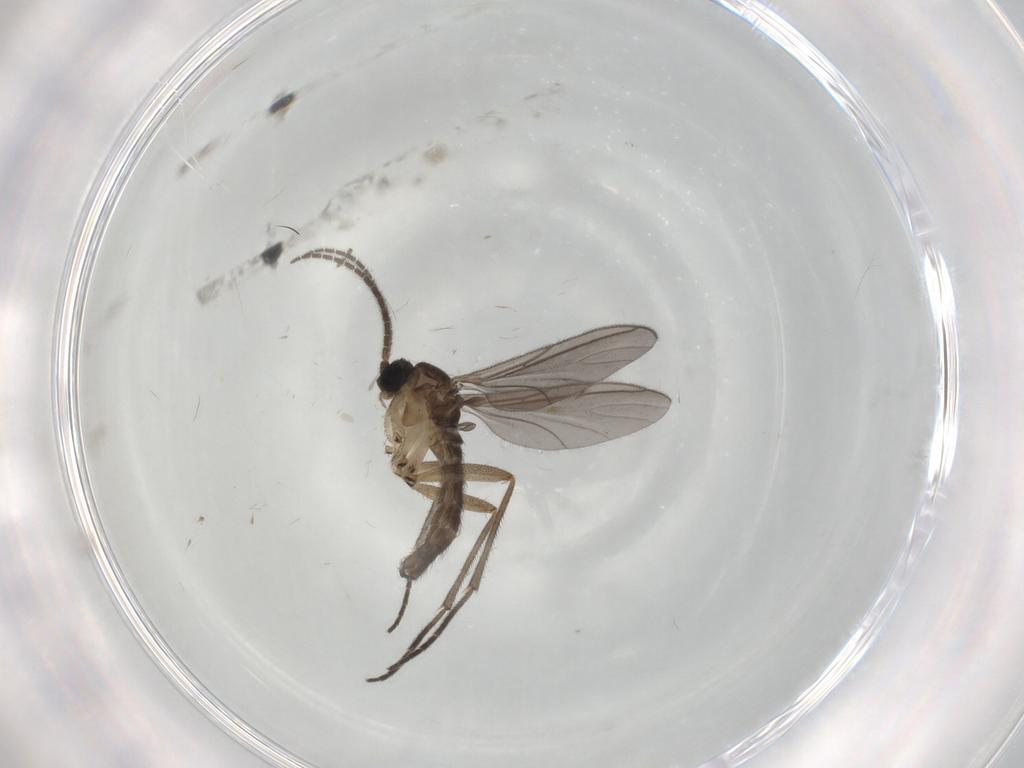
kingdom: Animalia
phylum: Arthropoda
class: Insecta
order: Diptera
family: Sciaridae
